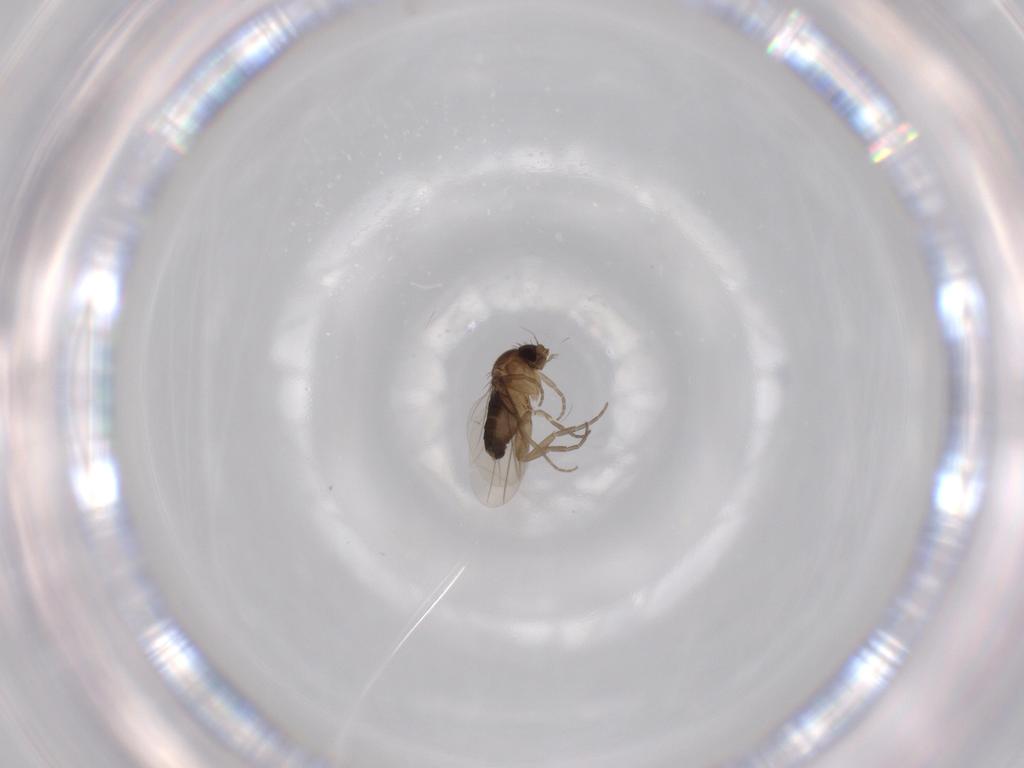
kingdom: Animalia
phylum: Arthropoda
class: Insecta
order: Diptera
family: Phoridae
